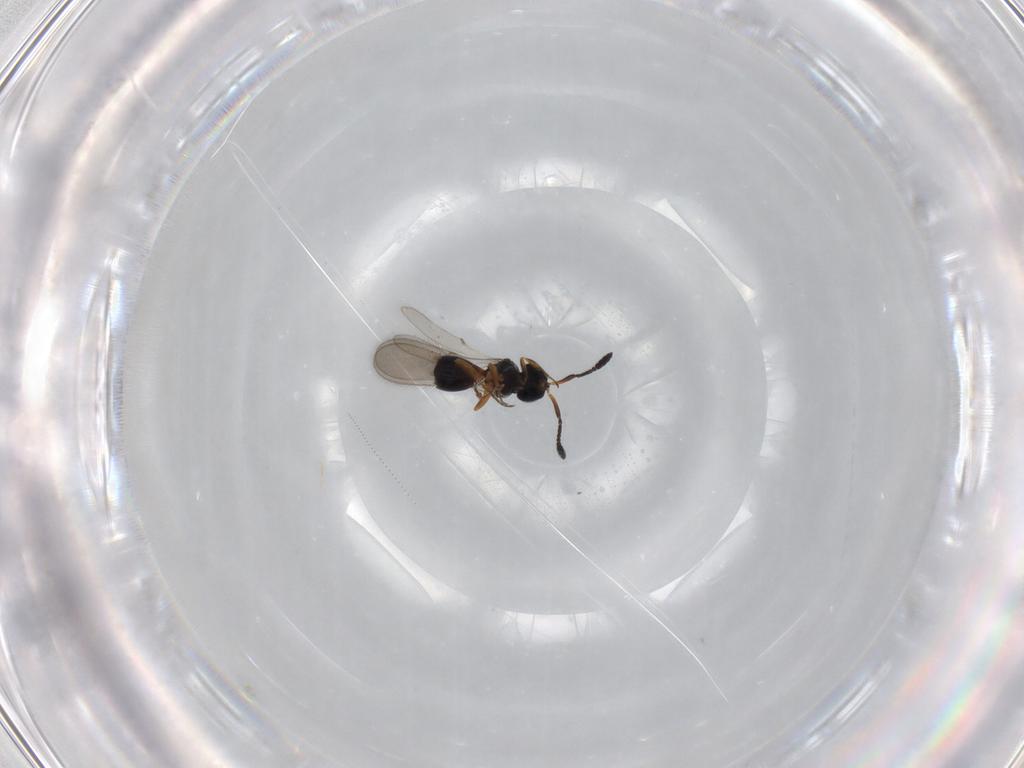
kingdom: Animalia
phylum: Arthropoda
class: Insecta
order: Hymenoptera
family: Scelionidae
